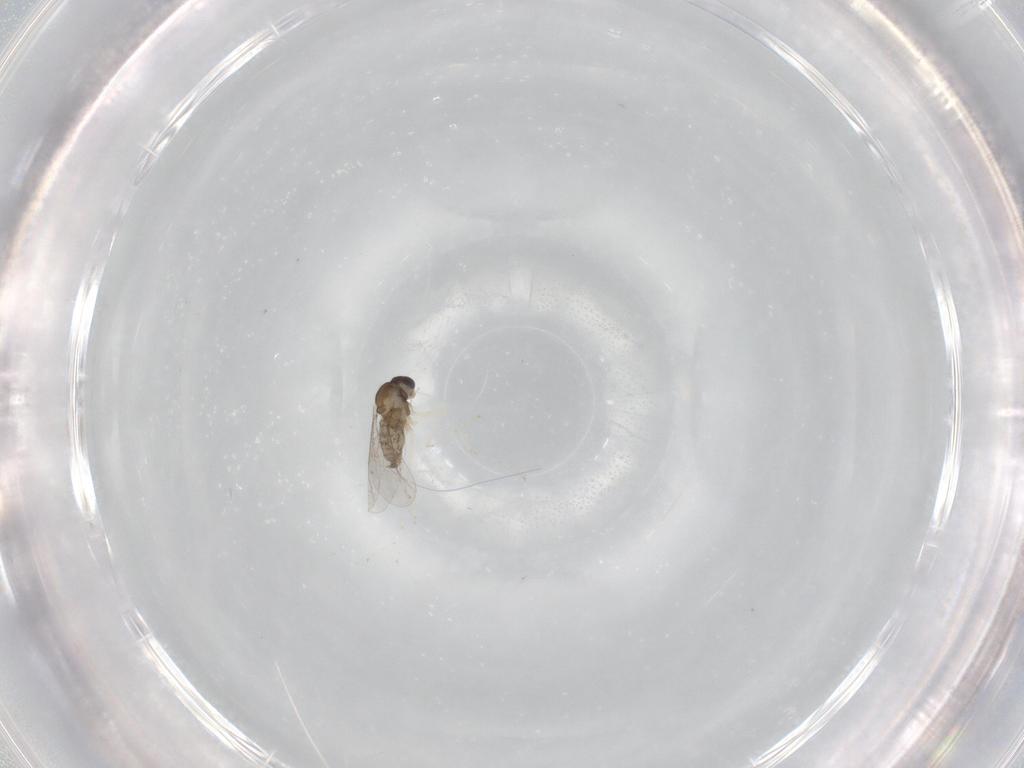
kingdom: Animalia
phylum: Arthropoda
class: Insecta
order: Diptera
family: Cecidomyiidae
